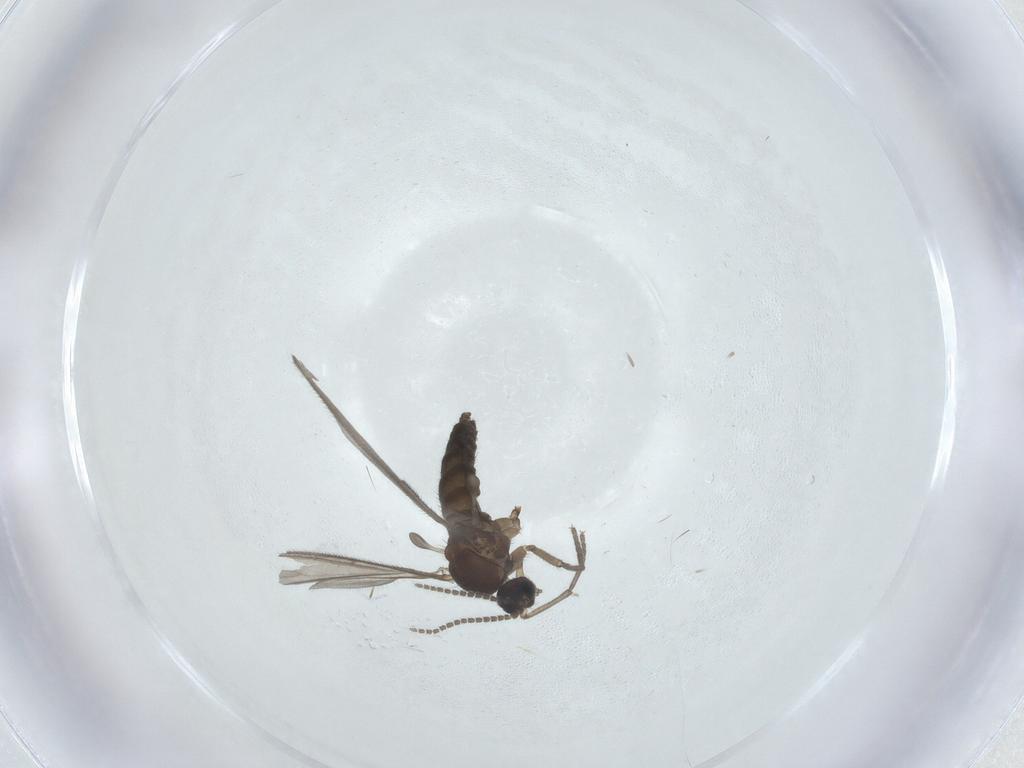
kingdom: Animalia
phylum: Arthropoda
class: Insecta
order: Diptera
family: Sciaridae
